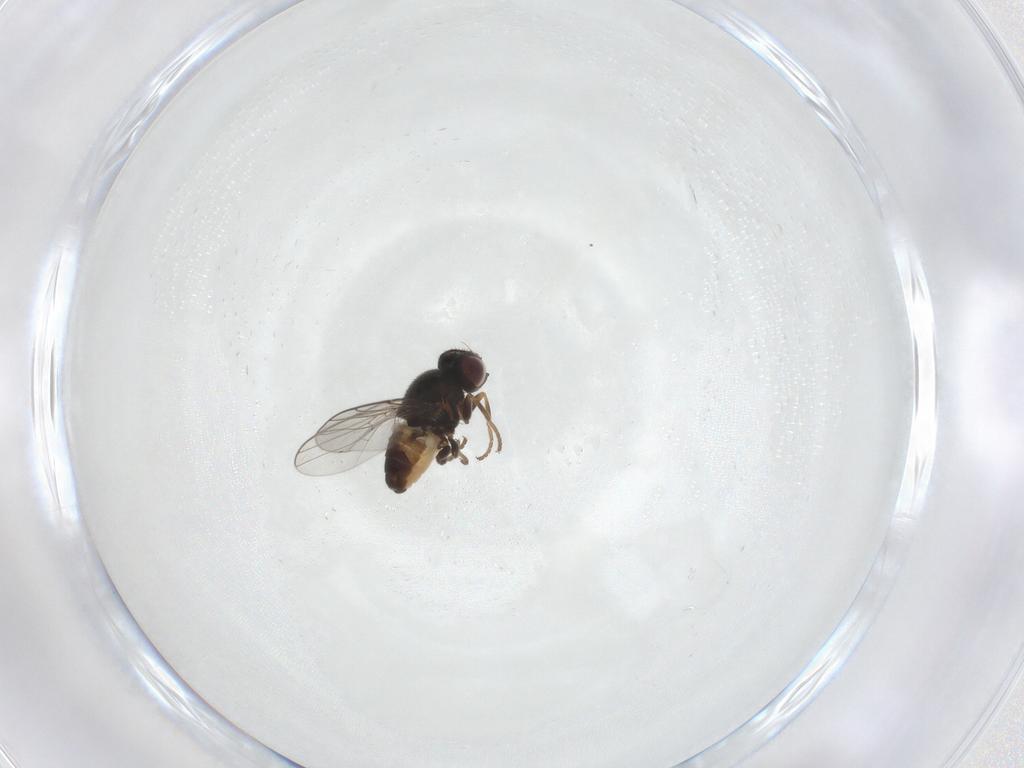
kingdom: Animalia
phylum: Arthropoda
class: Insecta
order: Diptera
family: Chloropidae
